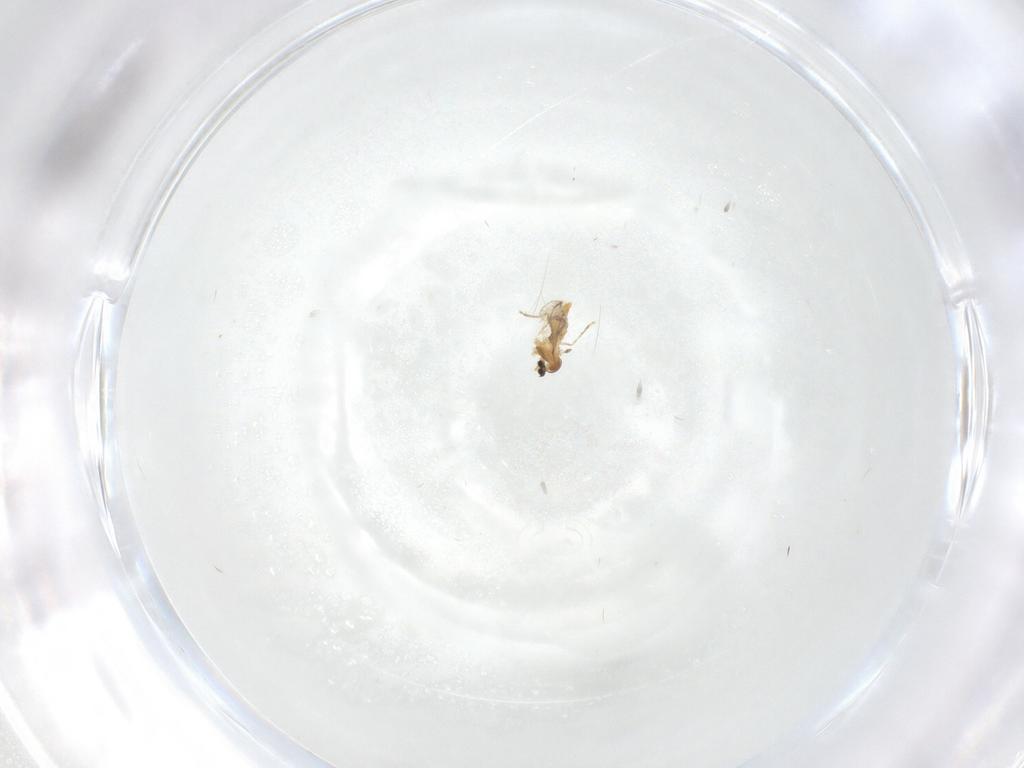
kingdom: Animalia
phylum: Arthropoda
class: Insecta
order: Diptera
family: Cecidomyiidae
